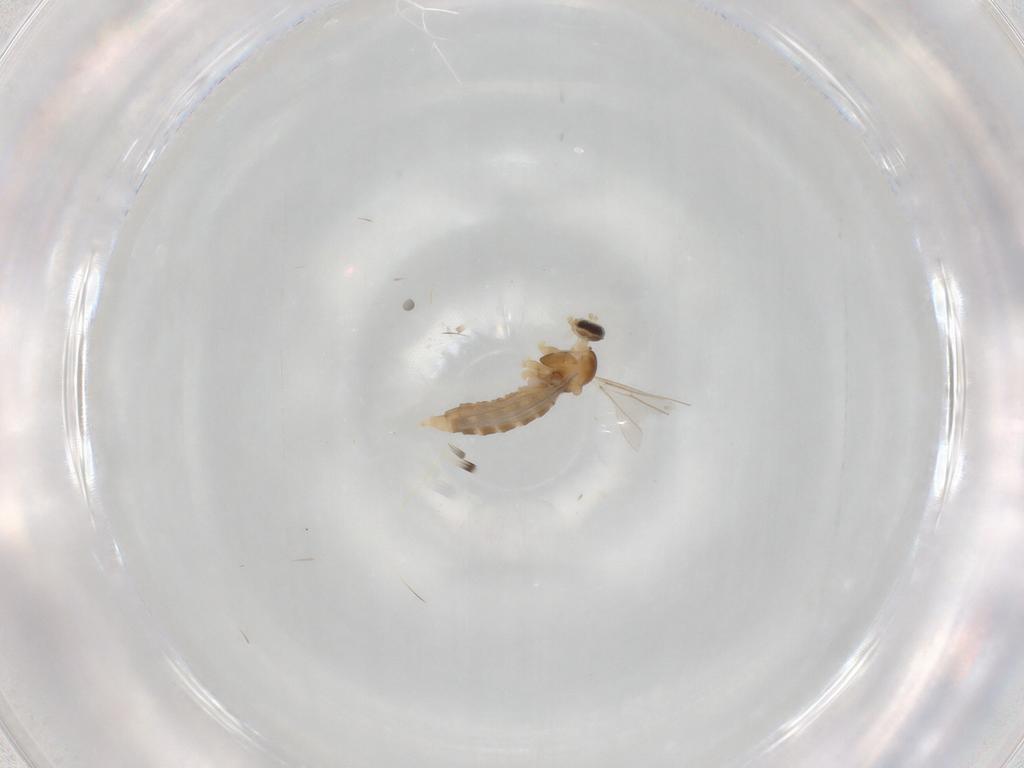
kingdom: Animalia
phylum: Arthropoda
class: Insecta
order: Diptera
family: Cecidomyiidae
